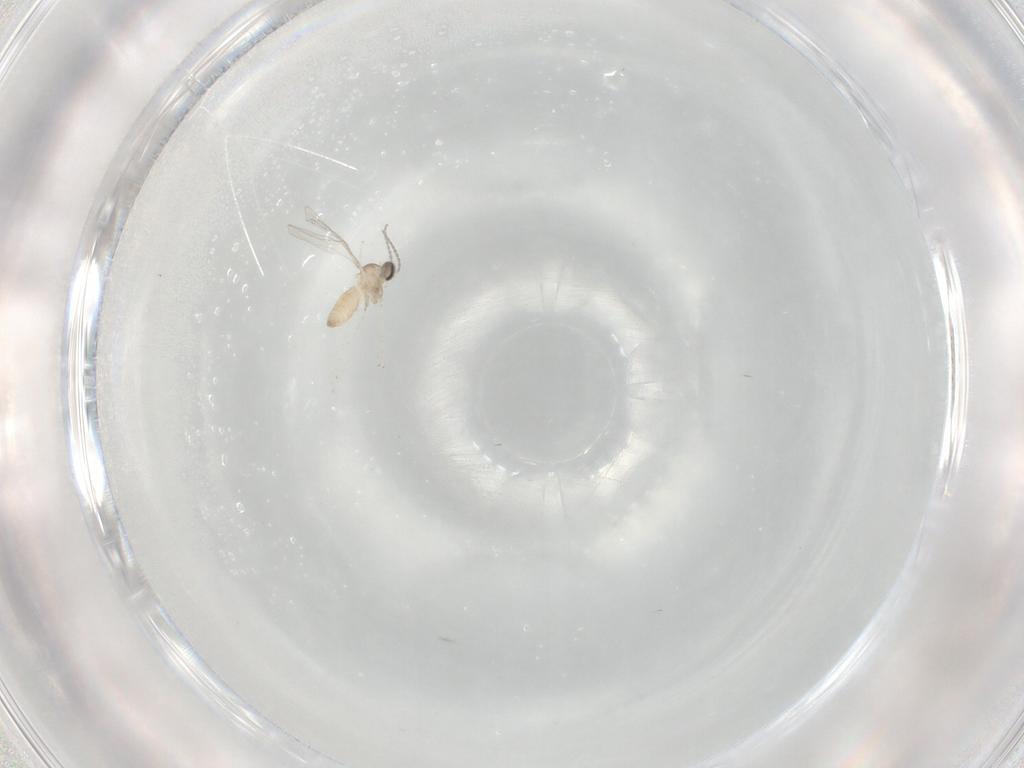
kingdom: Animalia
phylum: Arthropoda
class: Insecta
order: Diptera
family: Cecidomyiidae
